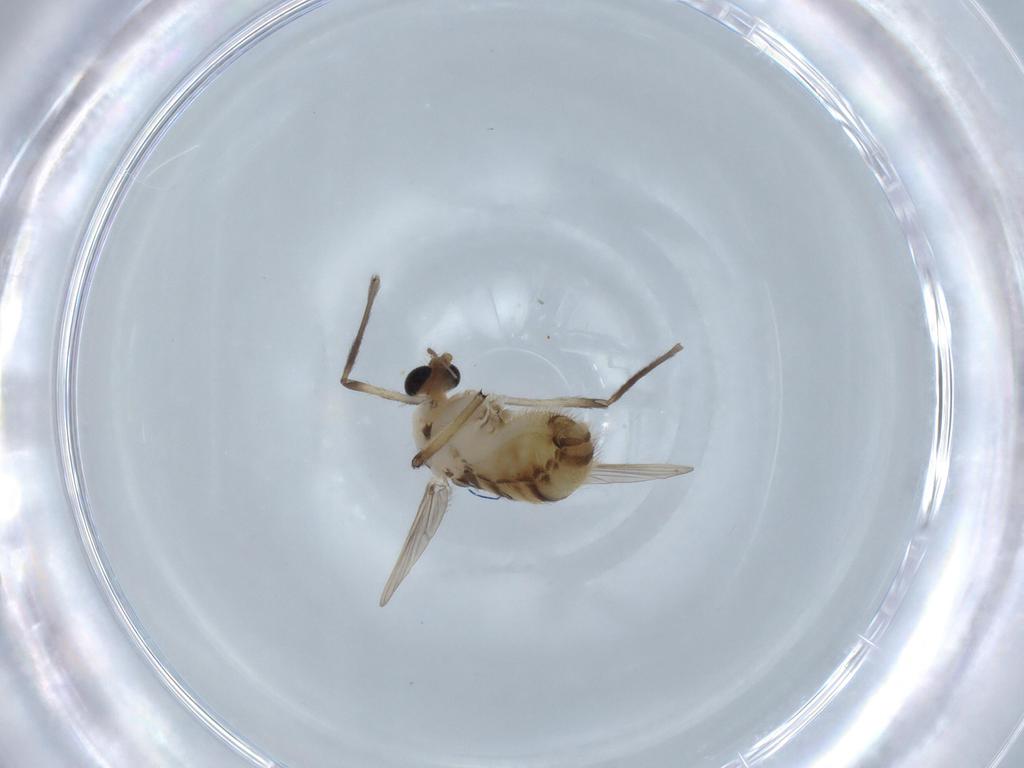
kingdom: Animalia
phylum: Arthropoda
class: Insecta
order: Diptera
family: Chironomidae
